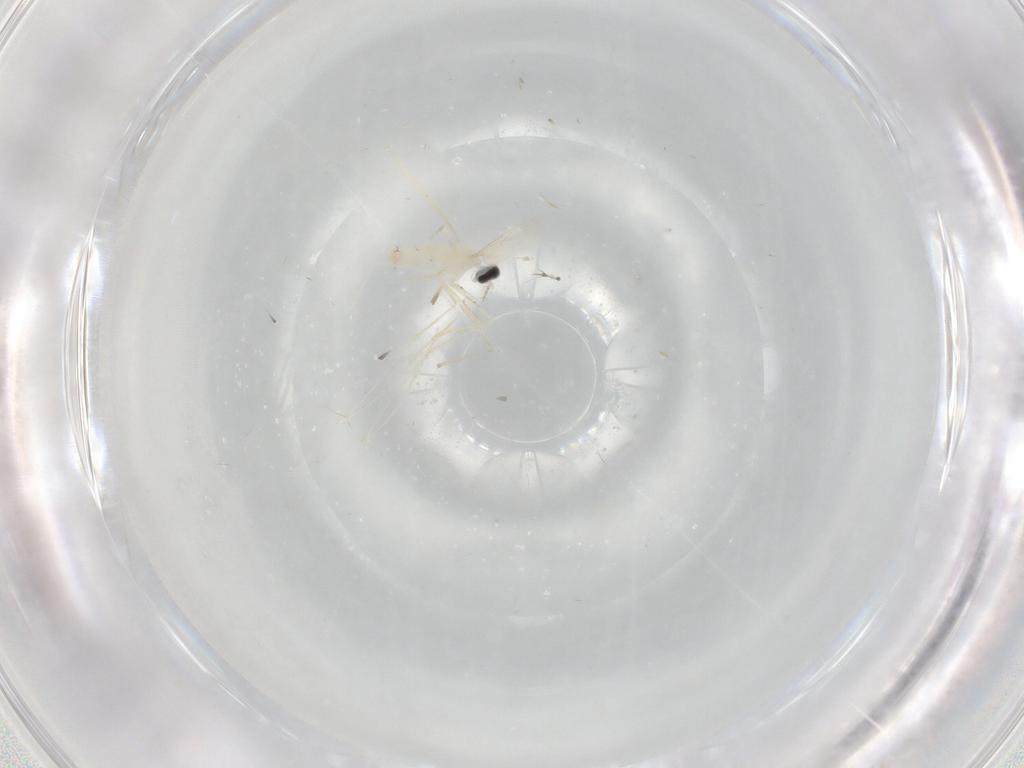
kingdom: Animalia
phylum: Arthropoda
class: Insecta
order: Diptera
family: Cecidomyiidae
